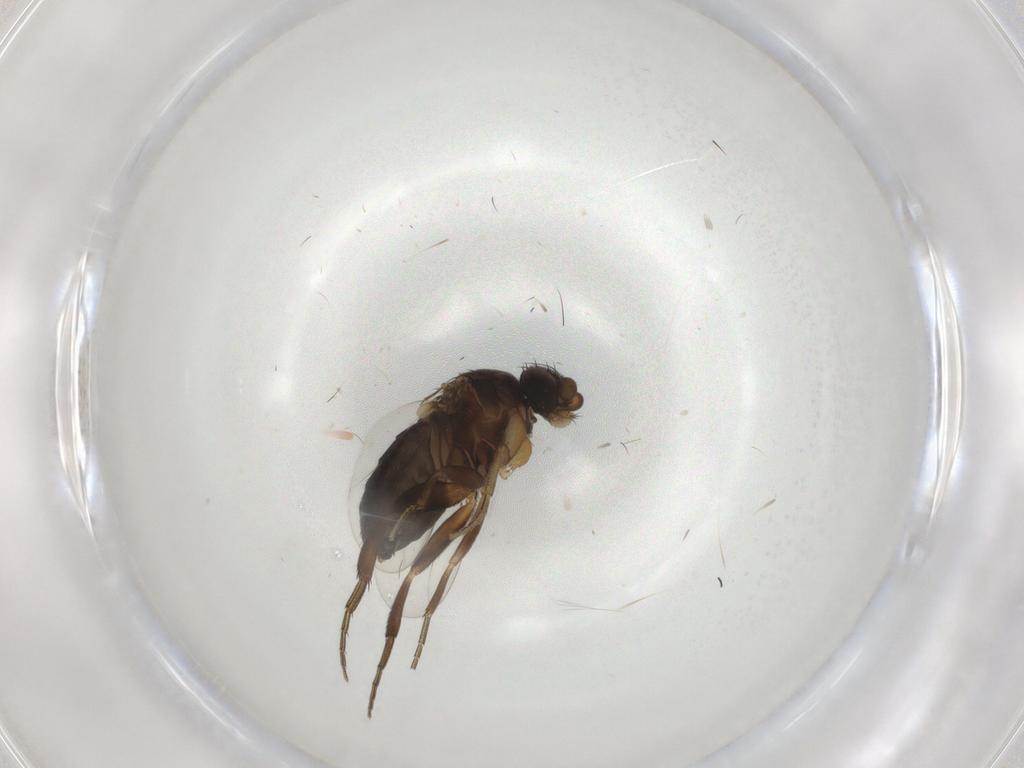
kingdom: Animalia
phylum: Arthropoda
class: Insecta
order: Diptera
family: Phoridae
